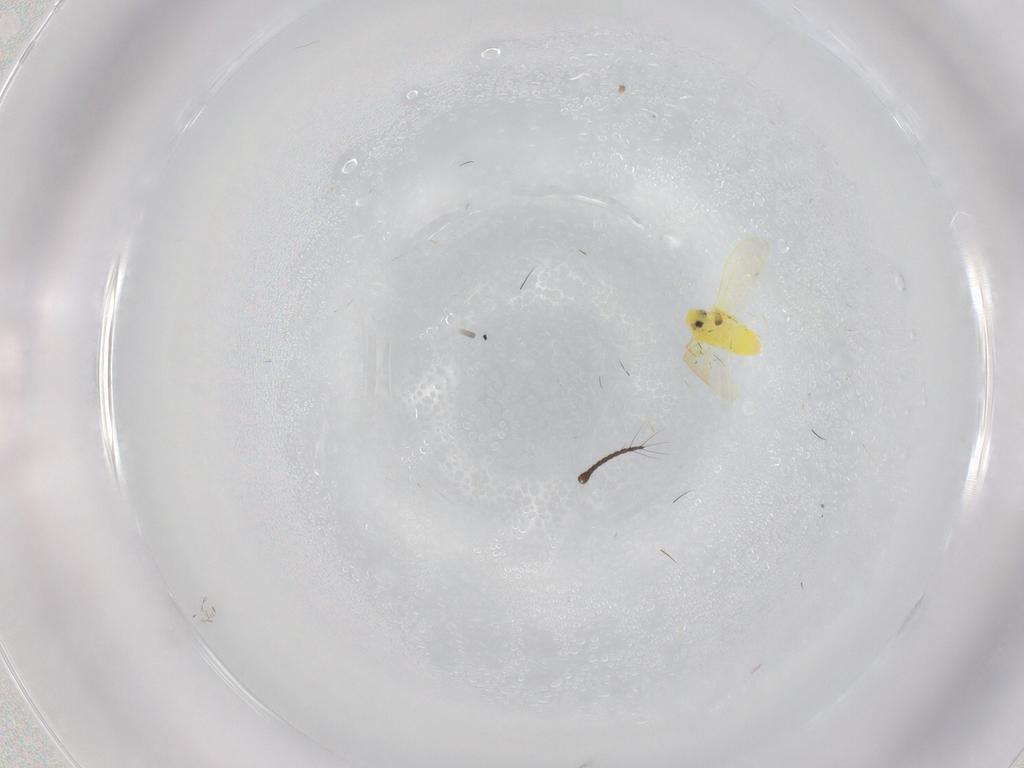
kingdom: Animalia
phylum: Arthropoda
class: Insecta
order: Hemiptera
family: Aleyrodidae
